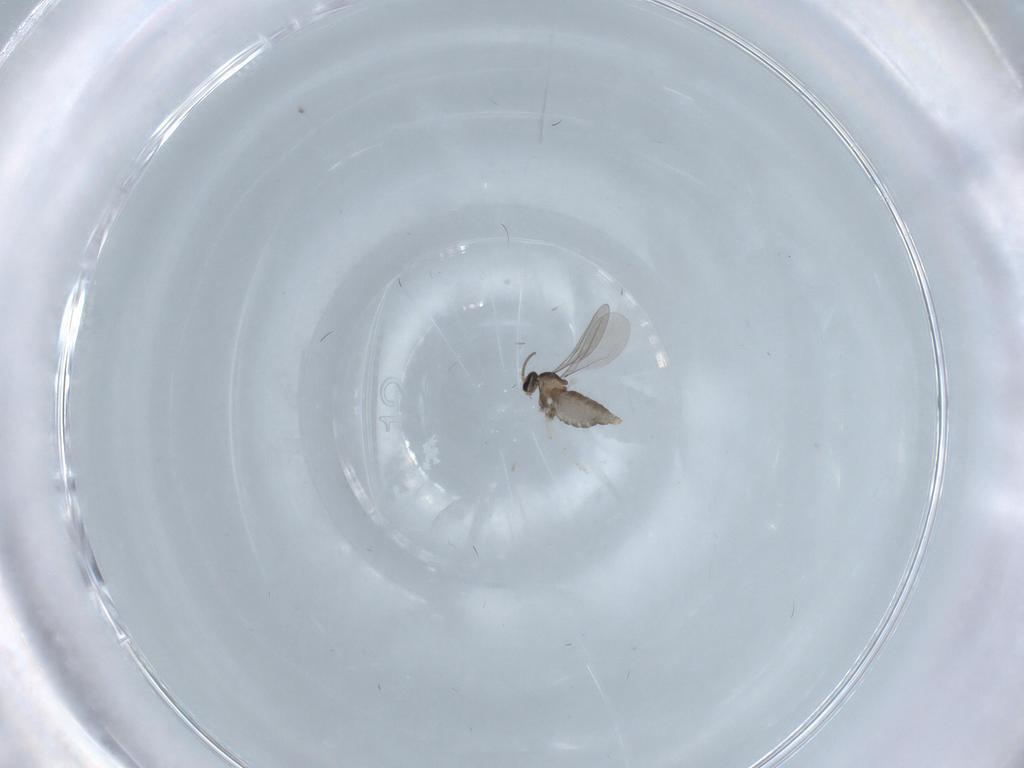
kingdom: Animalia
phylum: Arthropoda
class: Insecta
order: Diptera
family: Cecidomyiidae
